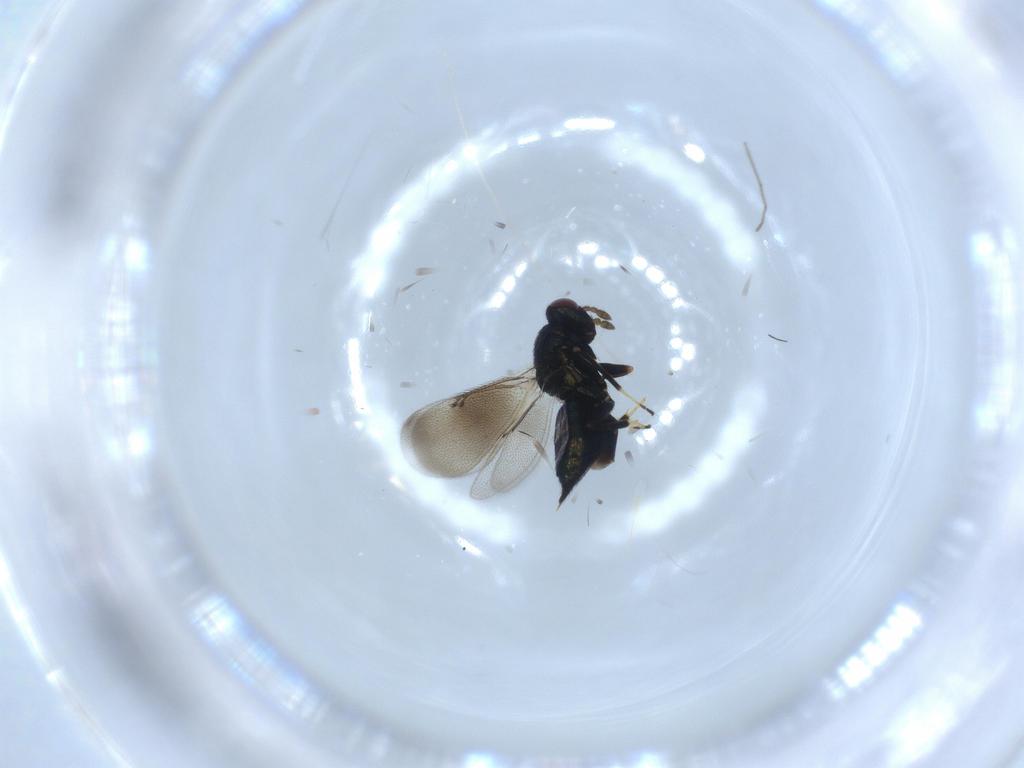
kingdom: Animalia
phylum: Arthropoda
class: Insecta
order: Hymenoptera
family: Eulophidae
